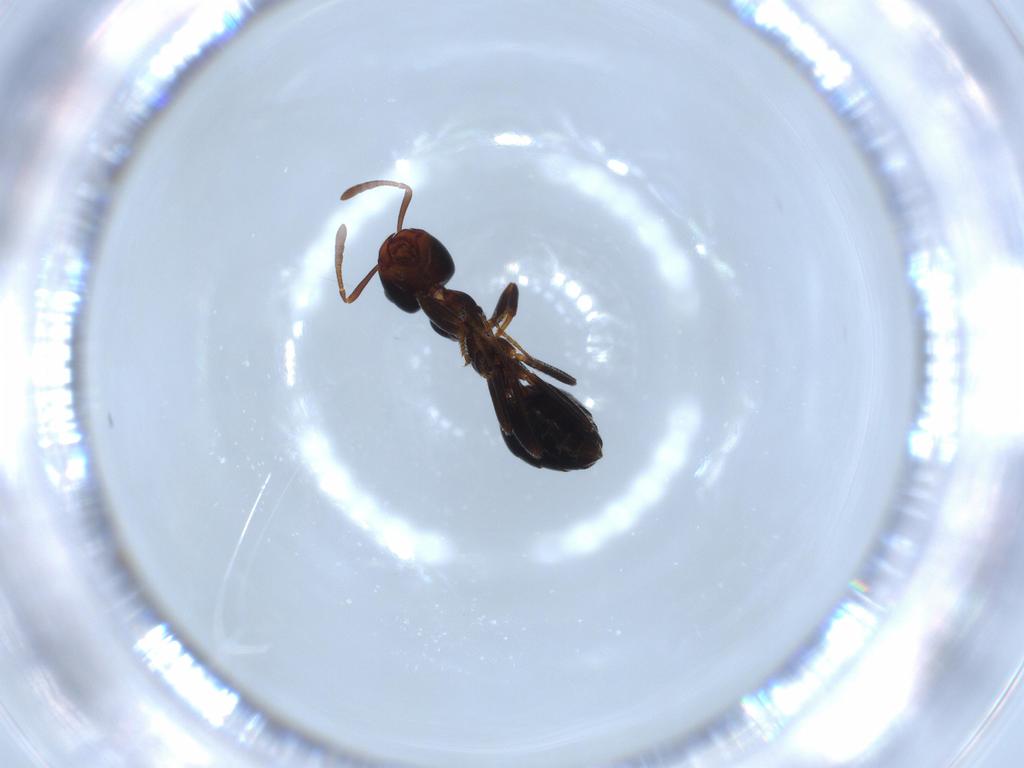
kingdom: Animalia
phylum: Arthropoda
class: Insecta
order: Hymenoptera
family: Formicidae
